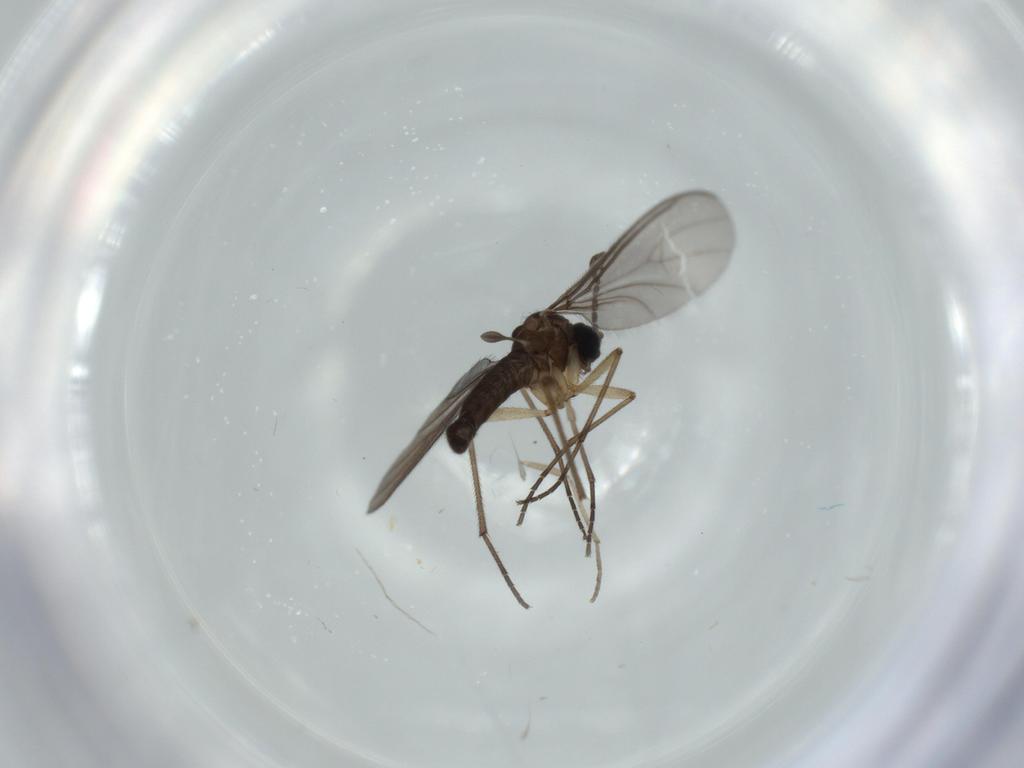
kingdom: Animalia
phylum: Arthropoda
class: Insecta
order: Diptera
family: Sciaridae
